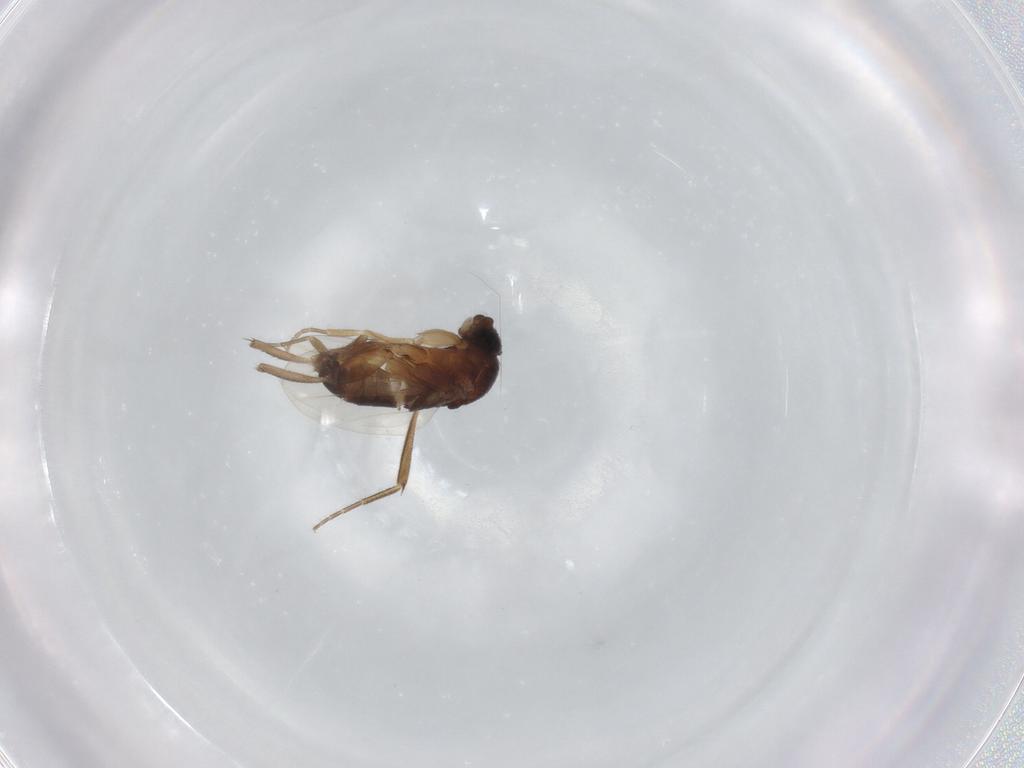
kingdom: Animalia
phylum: Arthropoda
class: Insecta
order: Diptera
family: Phoridae
